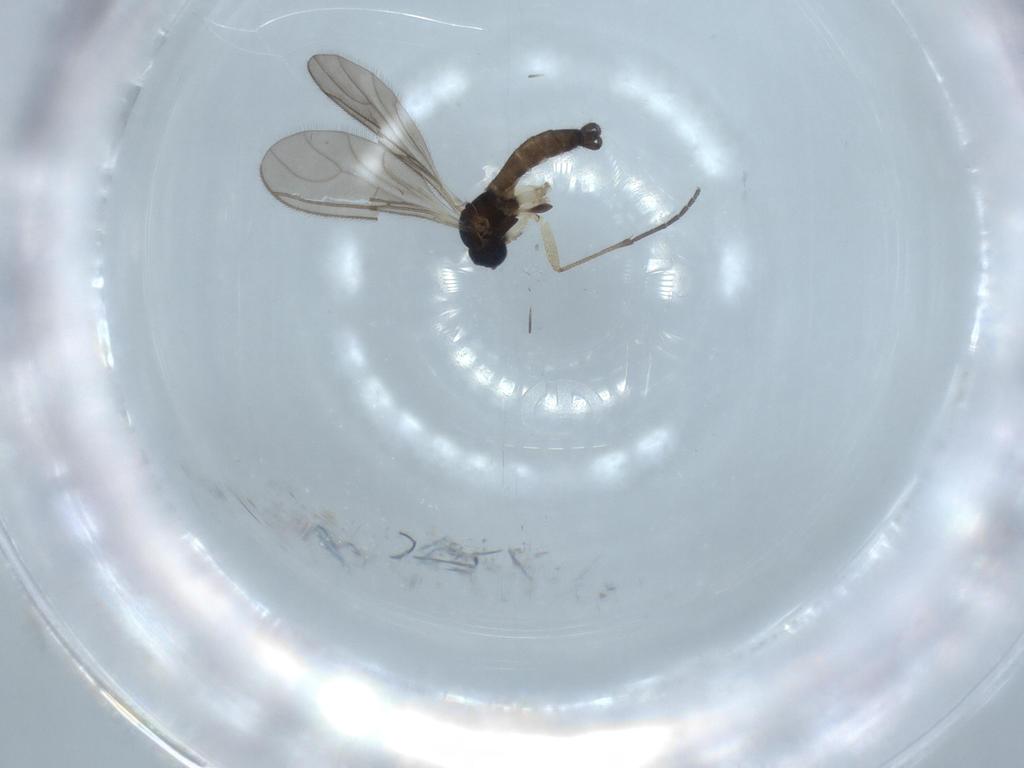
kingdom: Animalia
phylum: Arthropoda
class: Insecta
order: Diptera
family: Sciaridae
